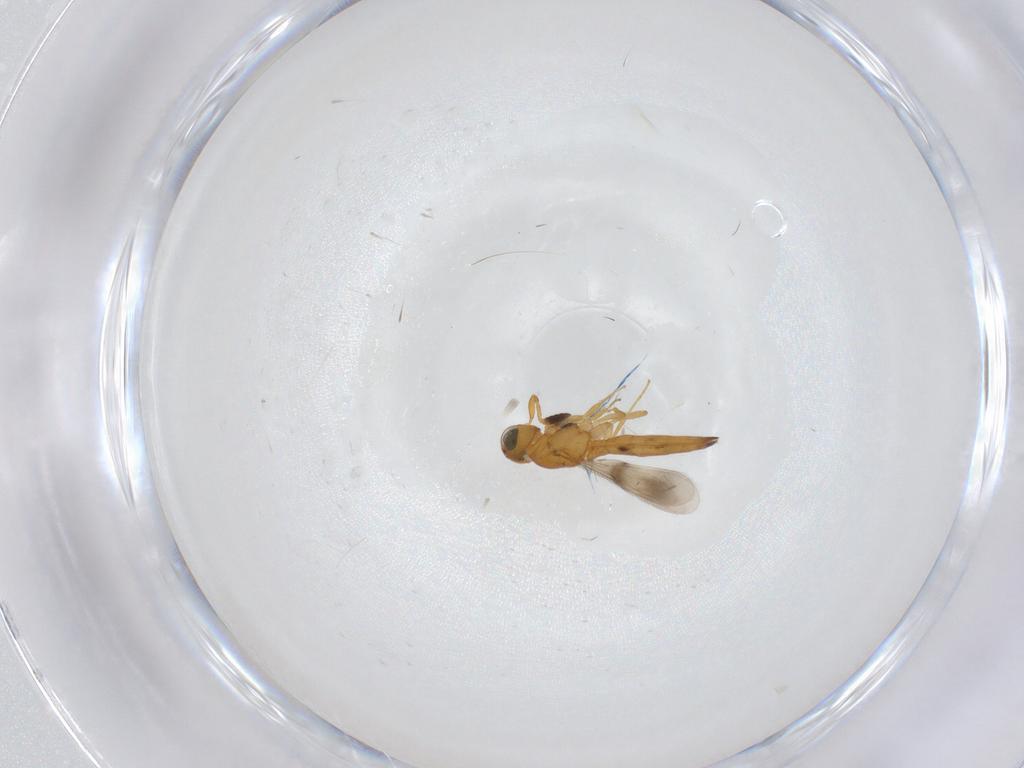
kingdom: Animalia
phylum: Arthropoda
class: Insecta
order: Hymenoptera
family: Scelionidae
